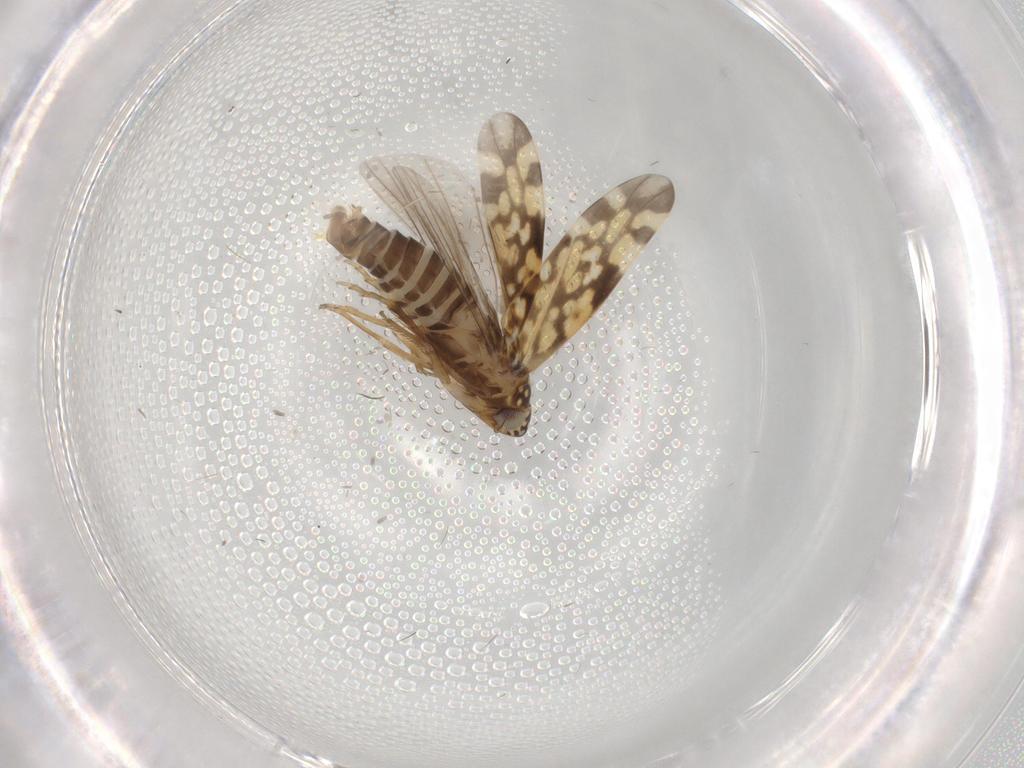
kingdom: Animalia
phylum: Arthropoda
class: Insecta
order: Hemiptera
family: Cicadellidae
